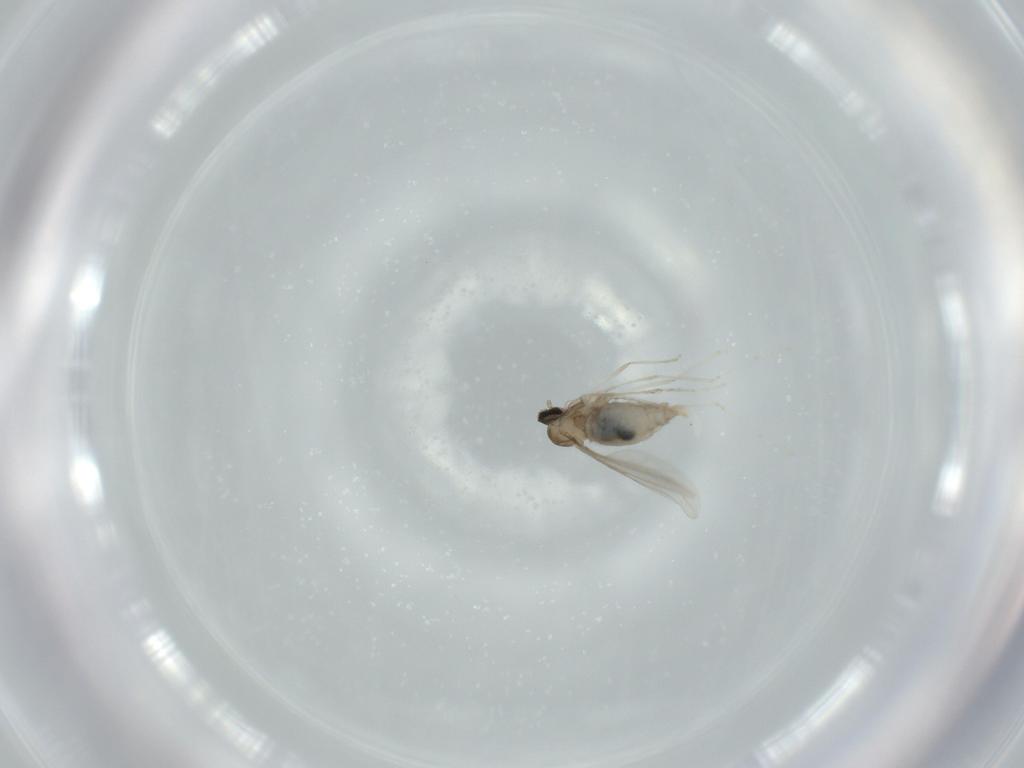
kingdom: Animalia
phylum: Arthropoda
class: Insecta
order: Diptera
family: Cecidomyiidae
